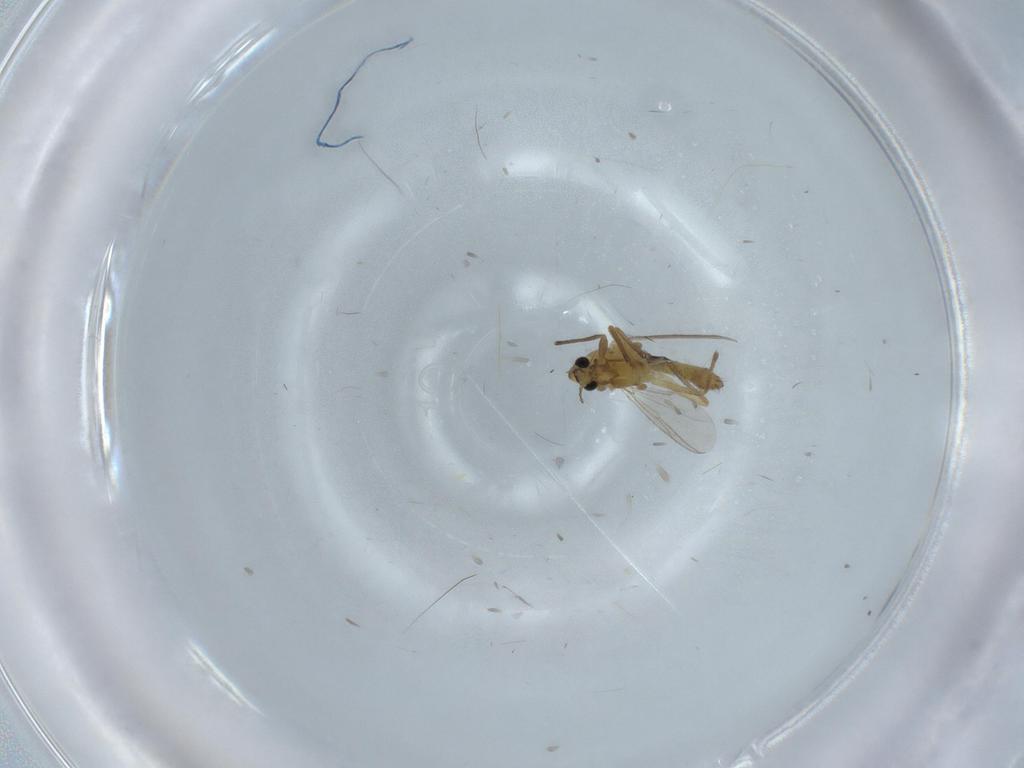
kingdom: Animalia
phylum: Arthropoda
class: Insecta
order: Diptera
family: Chironomidae
